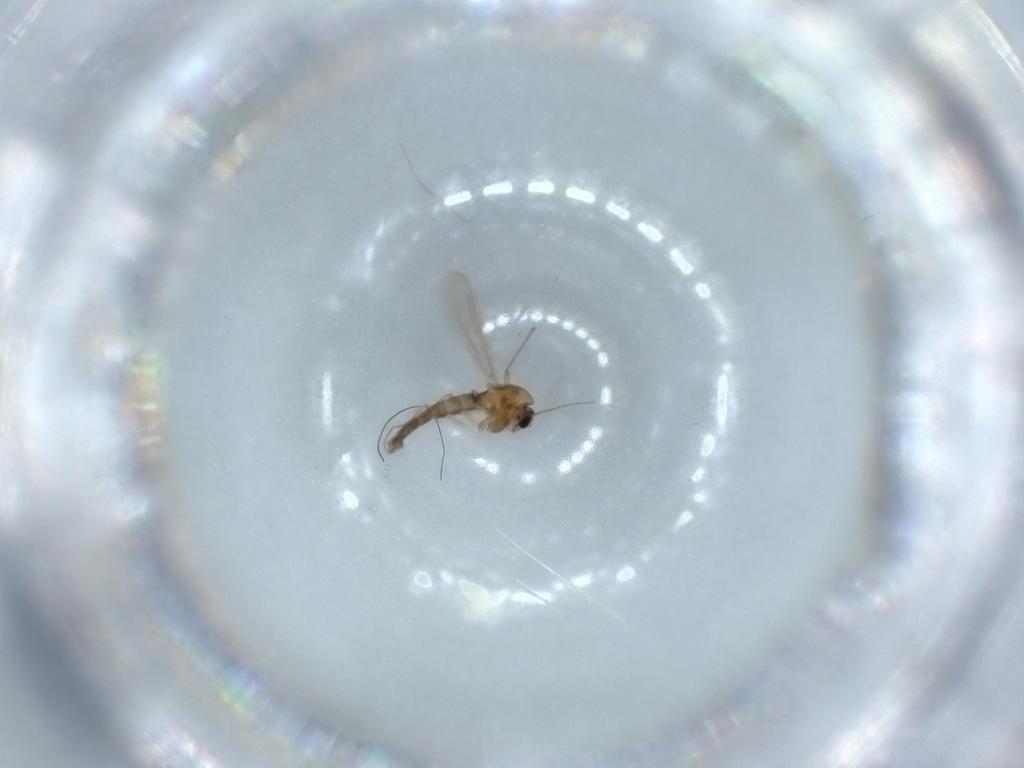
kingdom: Animalia
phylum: Arthropoda
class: Insecta
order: Diptera
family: Chironomidae
